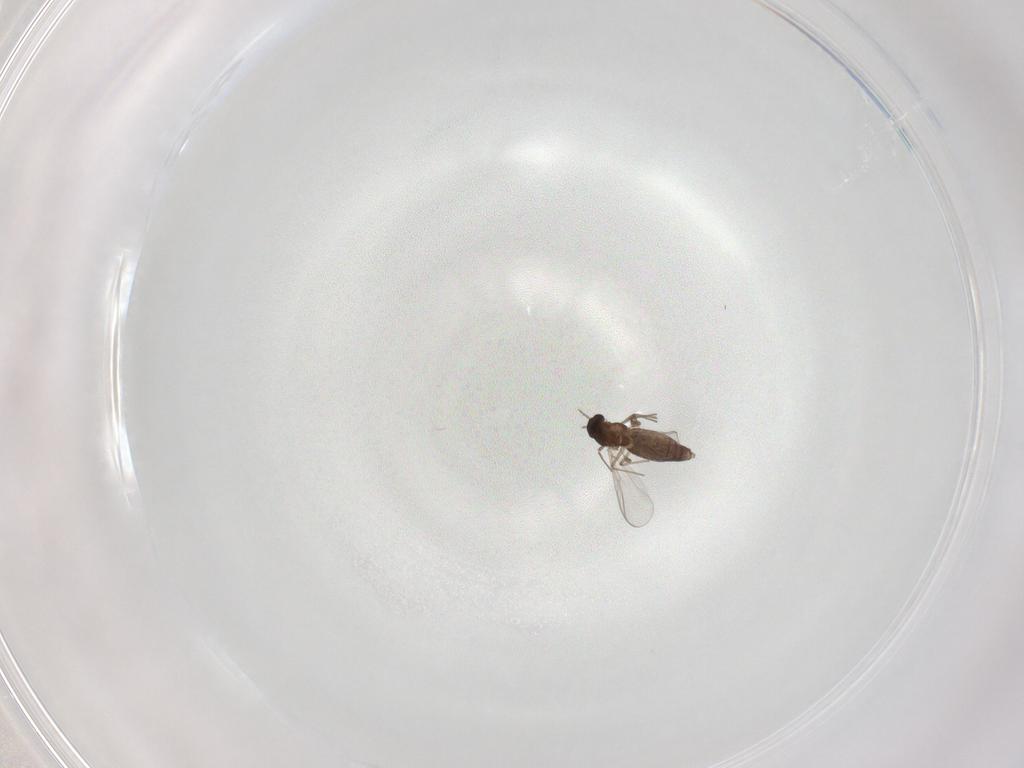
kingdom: Animalia
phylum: Arthropoda
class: Insecta
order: Diptera
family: Chironomidae
